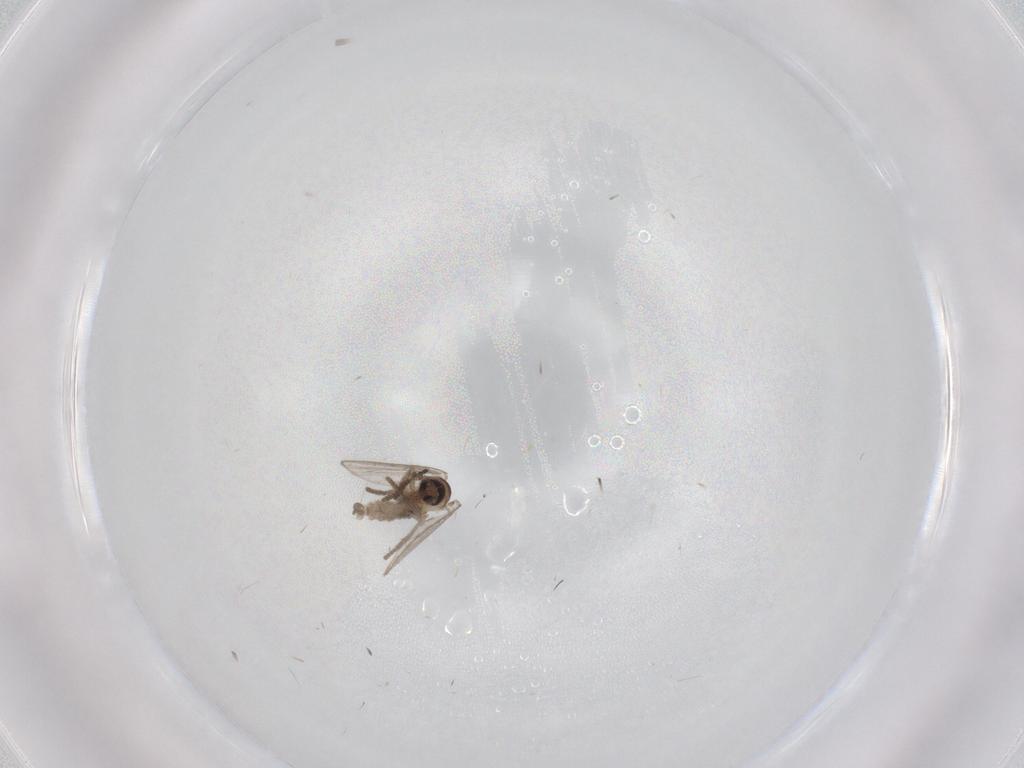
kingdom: Animalia
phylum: Arthropoda
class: Insecta
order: Diptera
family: Psychodidae
